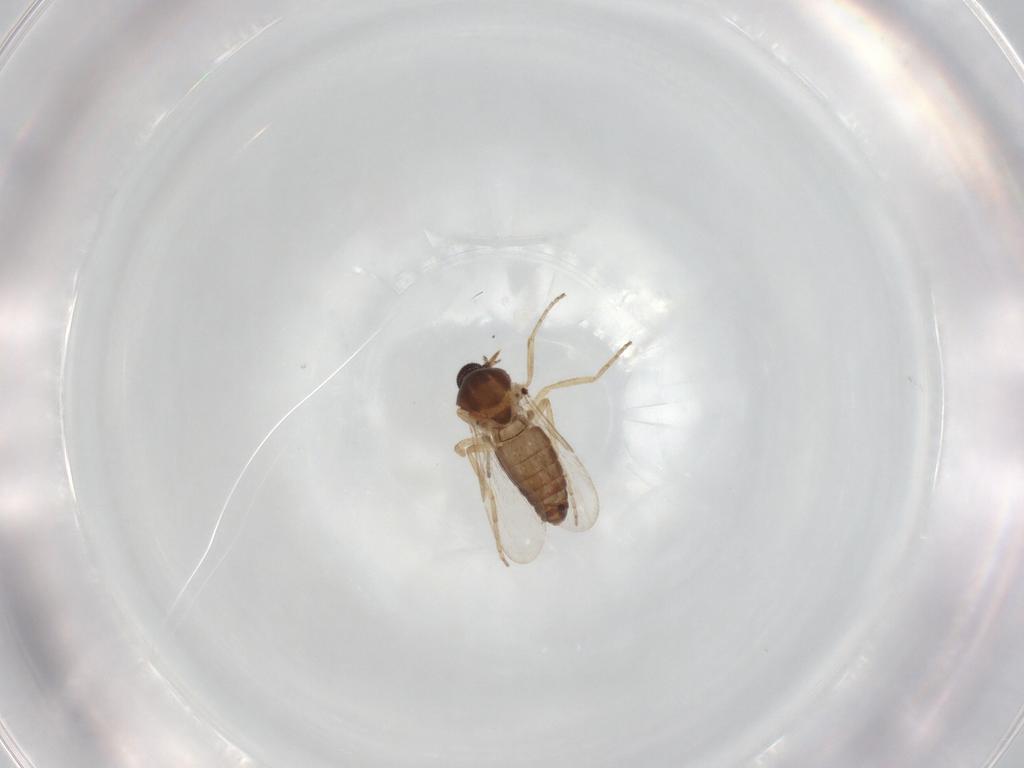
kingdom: Animalia
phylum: Arthropoda
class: Insecta
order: Diptera
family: Ceratopogonidae
